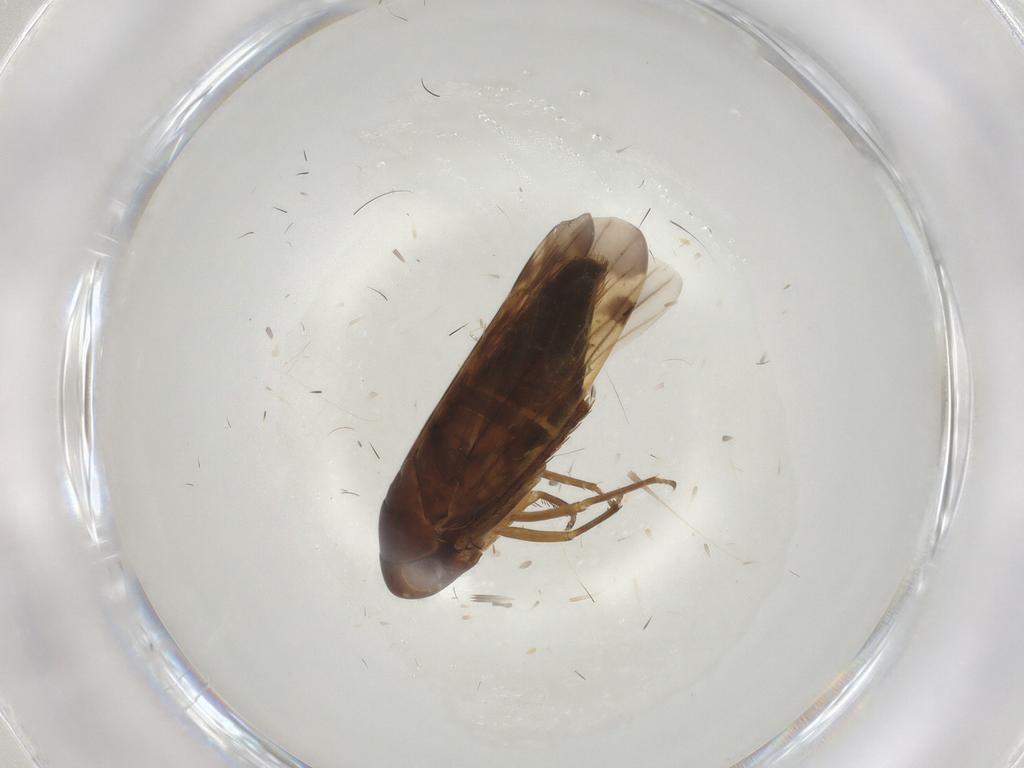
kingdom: Animalia
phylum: Arthropoda
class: Insecta
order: Hemiptera
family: Cicadellidae
